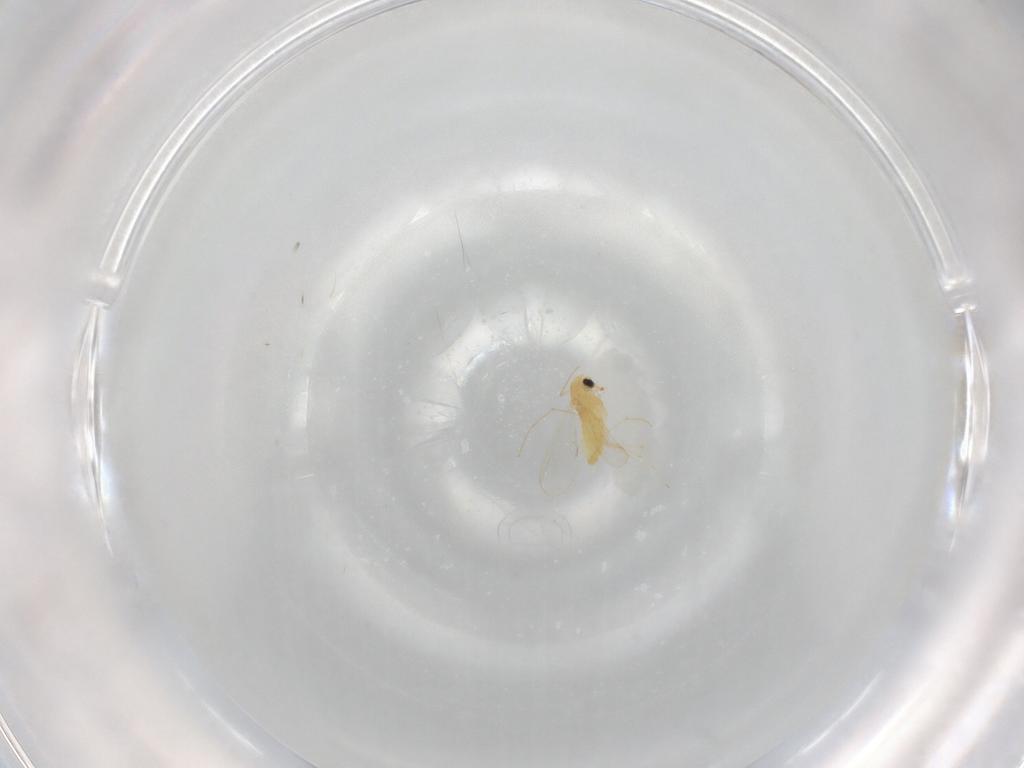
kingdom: Animalia
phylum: Arthropoda
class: Insecta
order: Diptera
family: Chironomidae
